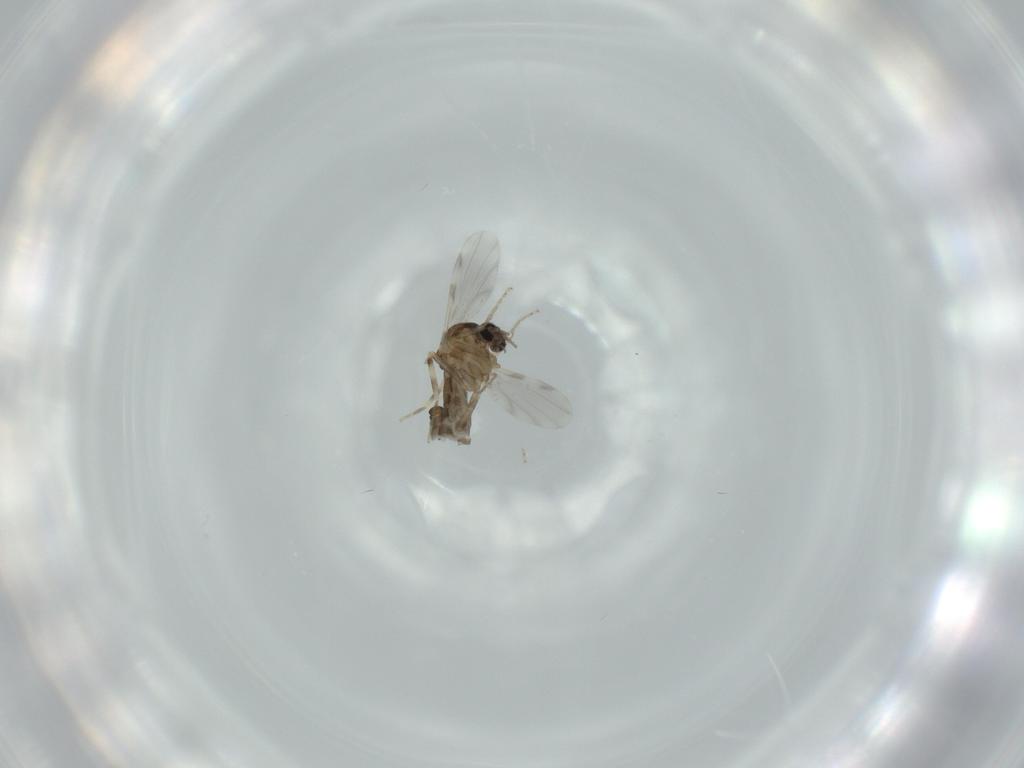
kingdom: Animalia
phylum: Arthropoda
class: Insecta
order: Diptera
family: Ceratopogonidae
